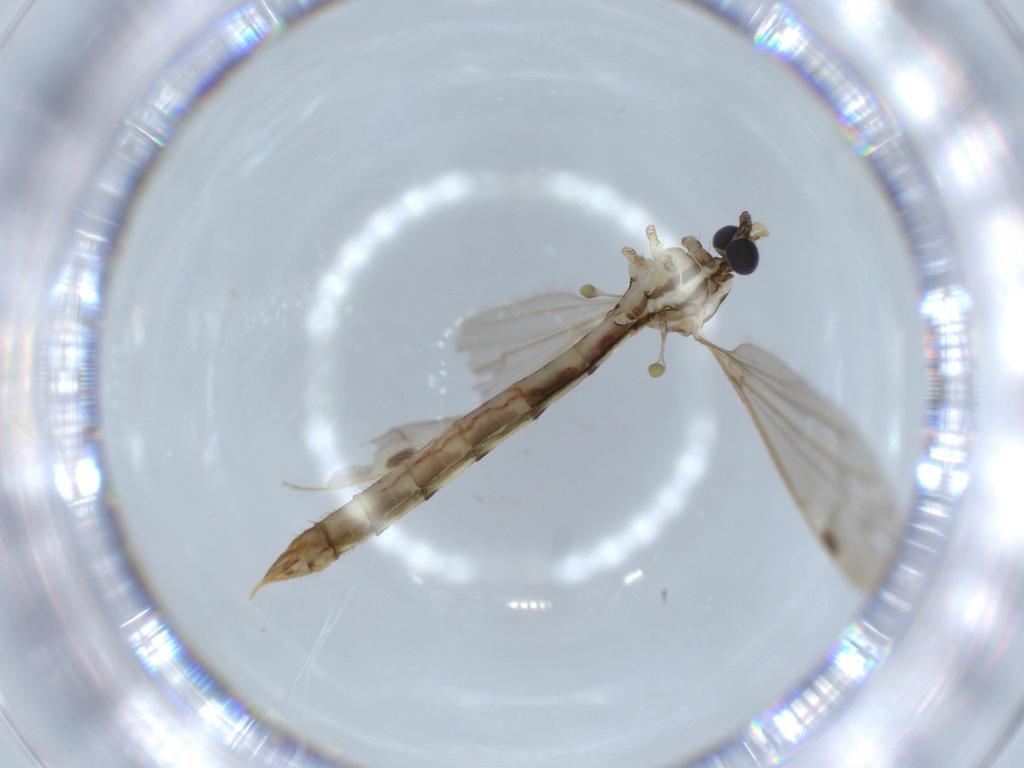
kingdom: Animalia
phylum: Arthropoda
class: Insecta
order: Diptera
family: Cecidomyiidae
